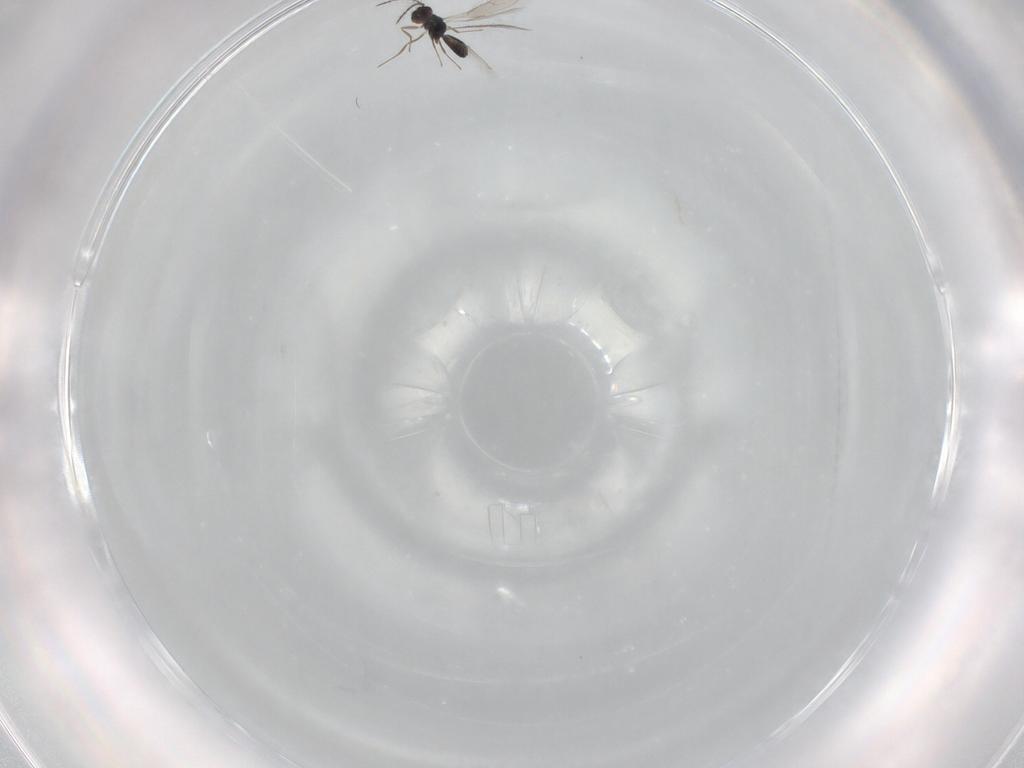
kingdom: Animalia
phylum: Arthropoda
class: Insecta
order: Hymenoptera
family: Pteromalidae
